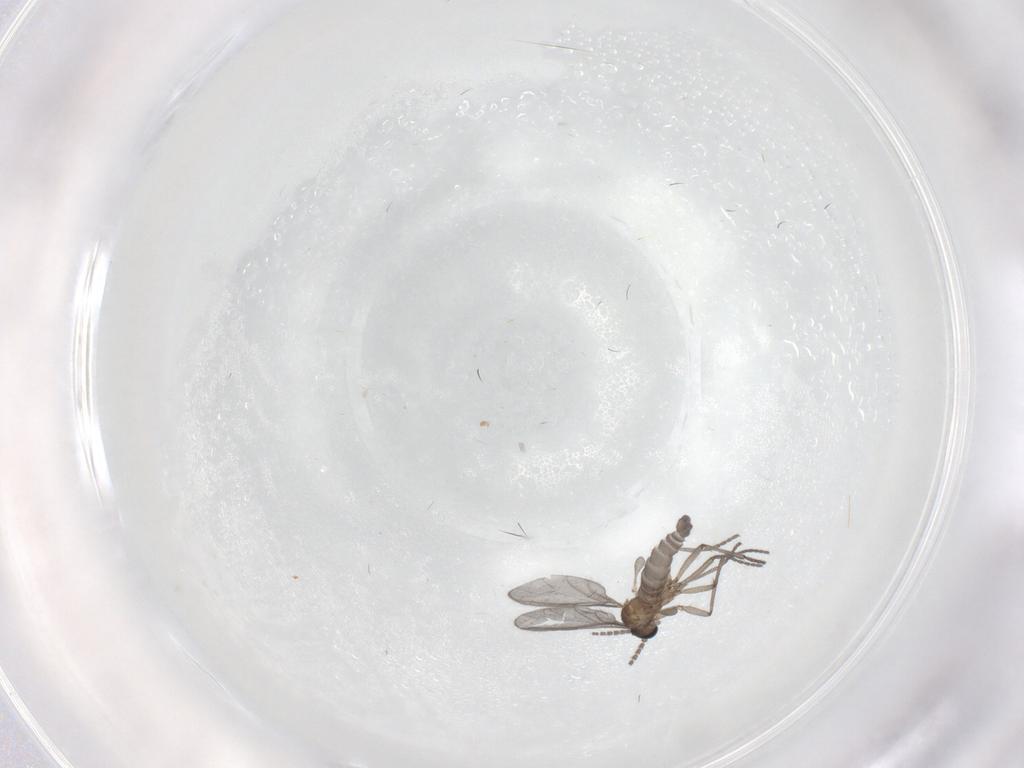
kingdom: Animalia
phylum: Arthropoda
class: Insecta
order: Diptera
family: Sciaridae
